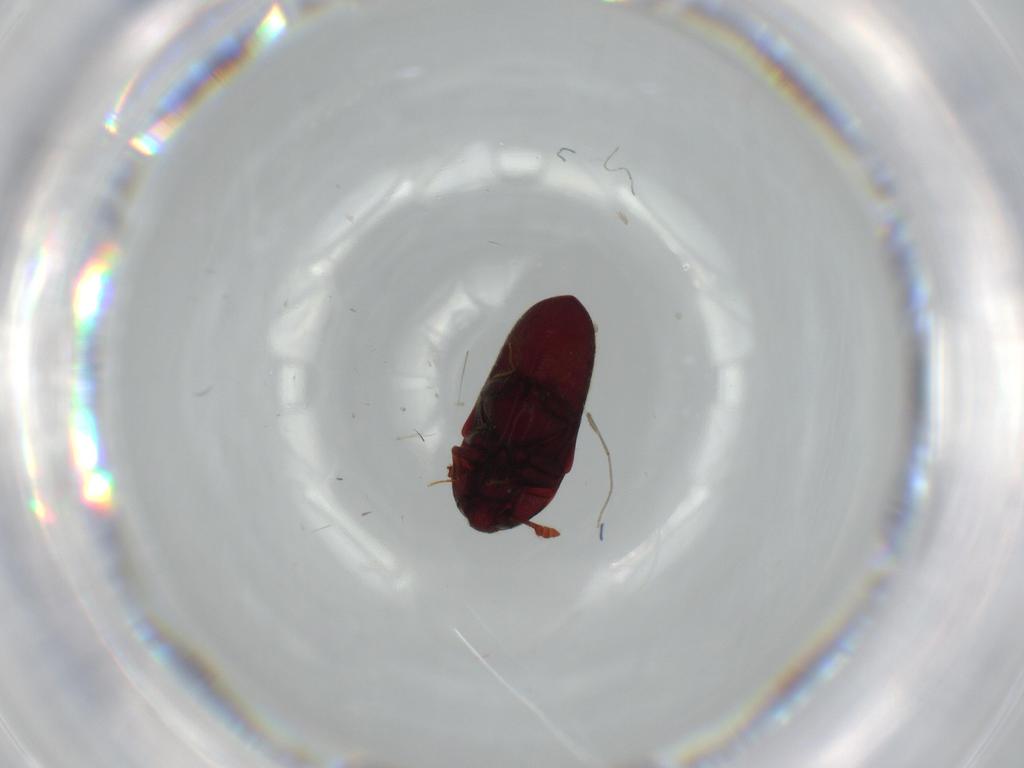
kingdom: Animalia
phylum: Arthropoda
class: Insecta
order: Coleoptera
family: Throscidae
